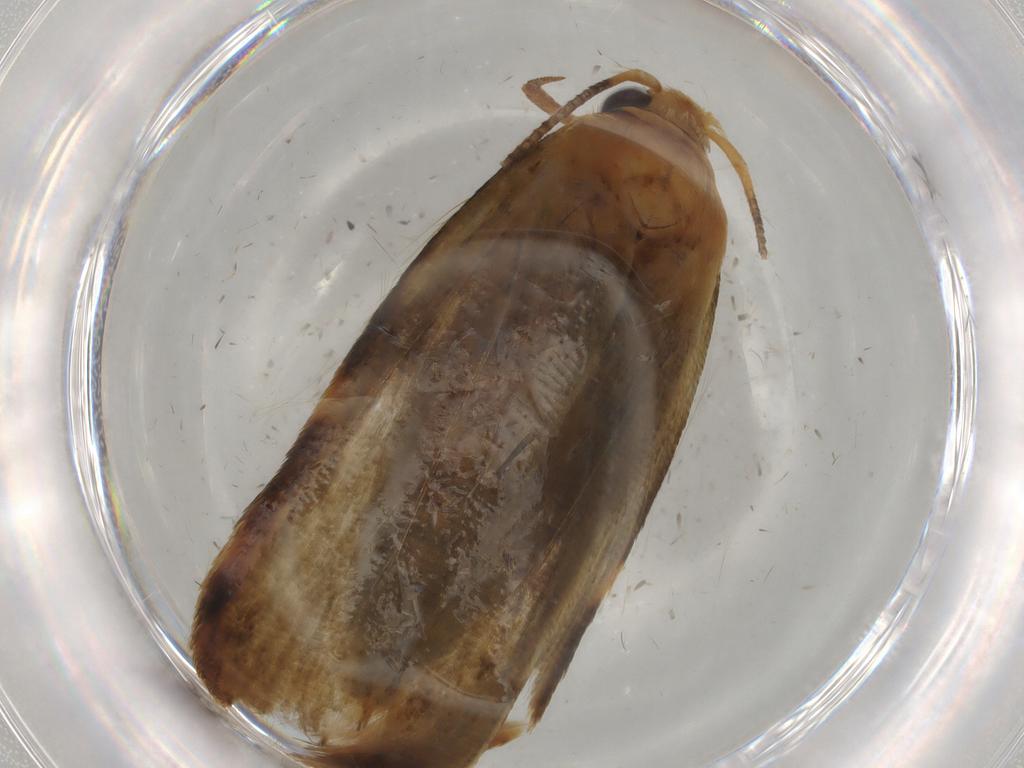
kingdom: Animalia
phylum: Arthropoda
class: Insecta
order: Lepidoptera
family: Blastobasidae
